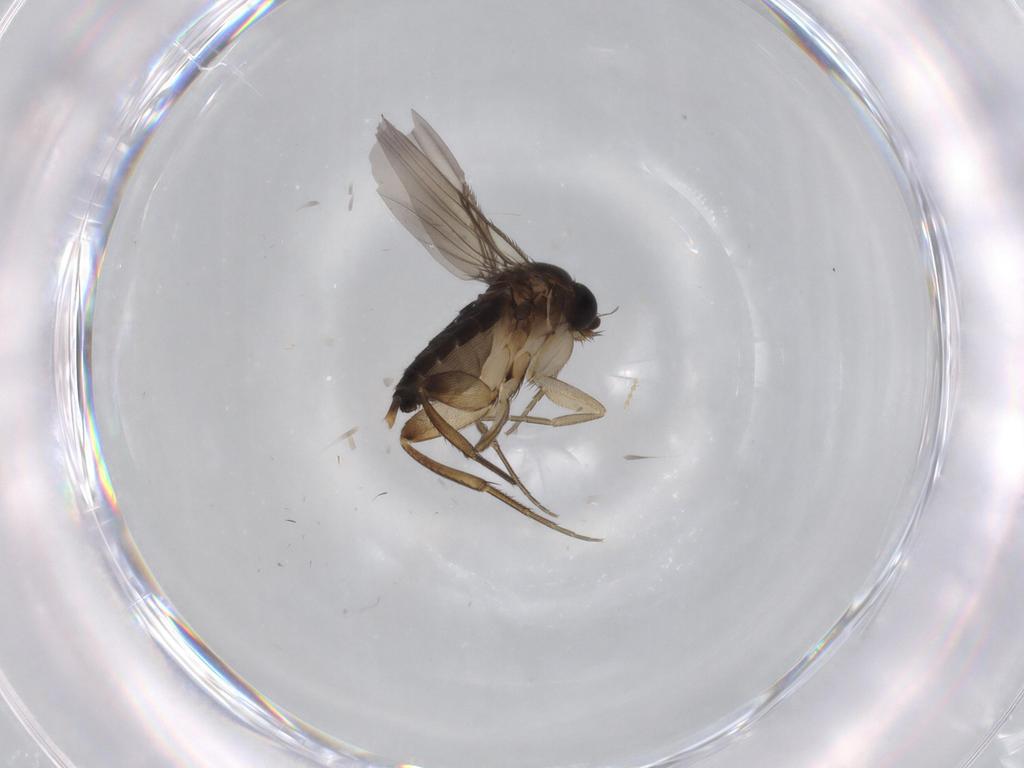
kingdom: Animalia
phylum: Arthropoda
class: Insecta
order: Diptera
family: Phoridae
